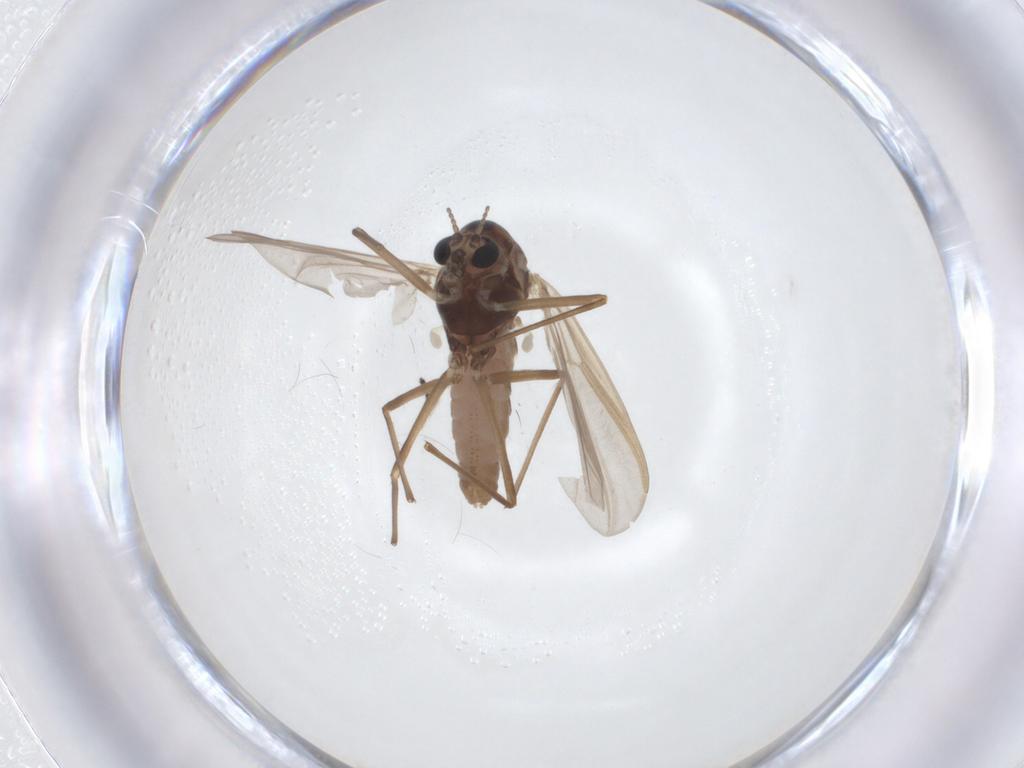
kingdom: Animalia
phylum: Arthropoda
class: Insecta
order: Diptera
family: Chironomidae
